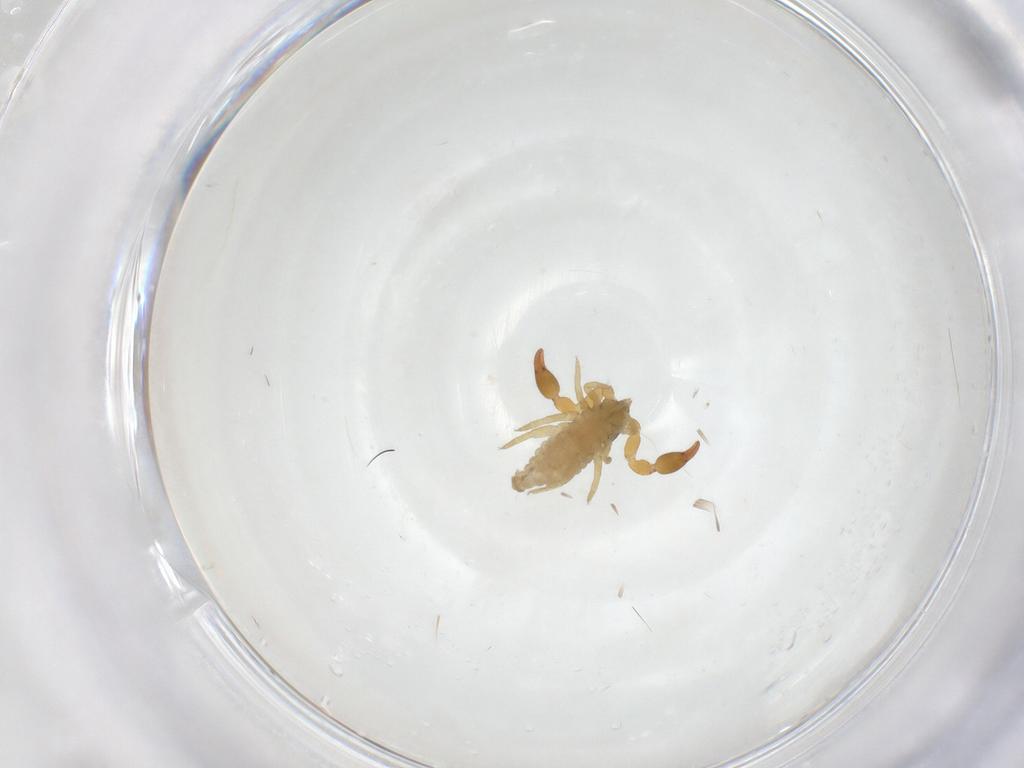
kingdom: Animalia
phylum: Arthropoda
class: Arachnida
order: Pseudoscorpiones
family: Chernetidae
